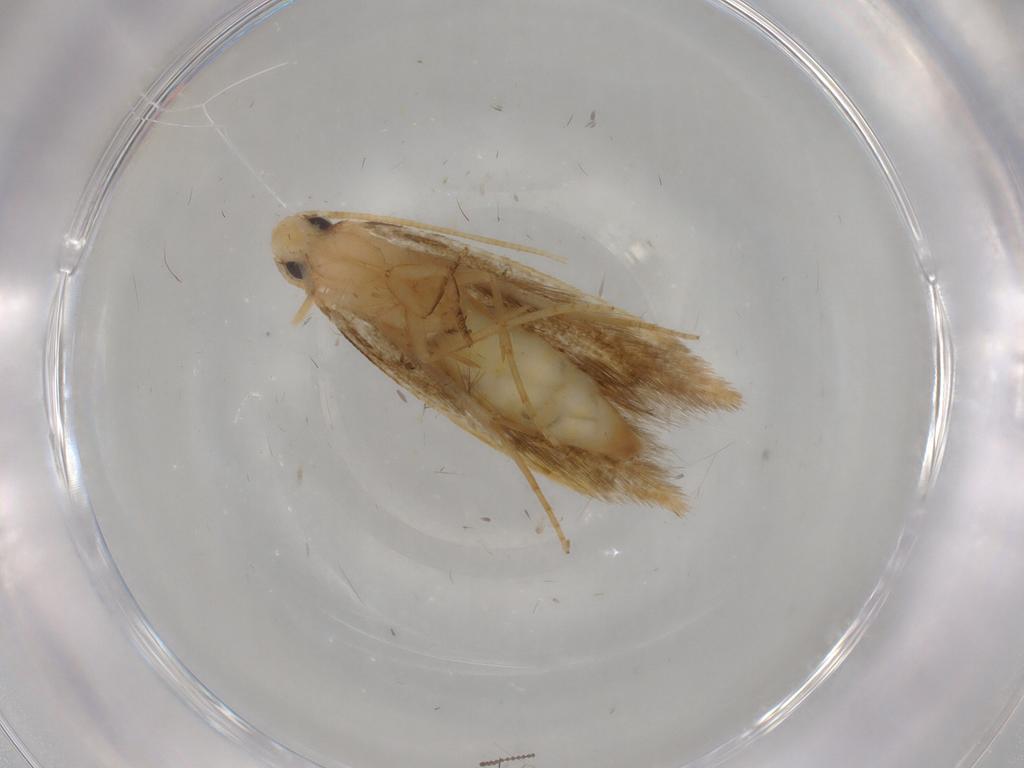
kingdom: Animalia
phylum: Arthropoda
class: Insecta
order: Lepidoptera
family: Tineidae
